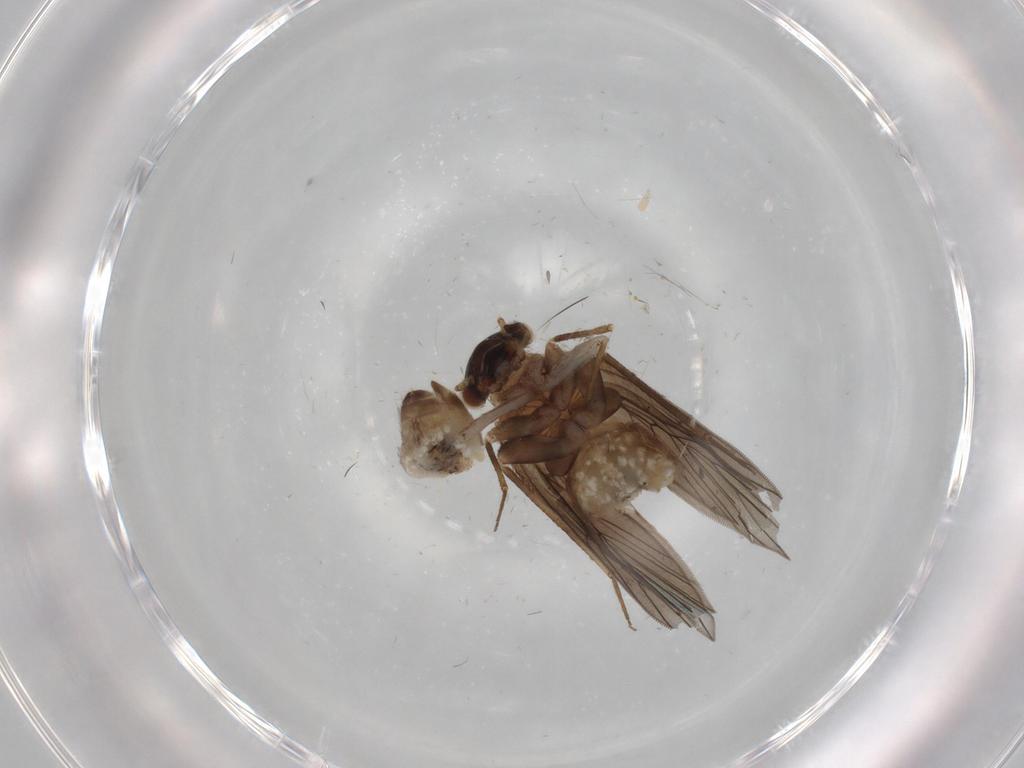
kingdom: Animalia
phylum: Arthropoda
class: Insecta
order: Psocodea
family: Lepidopsocidae
